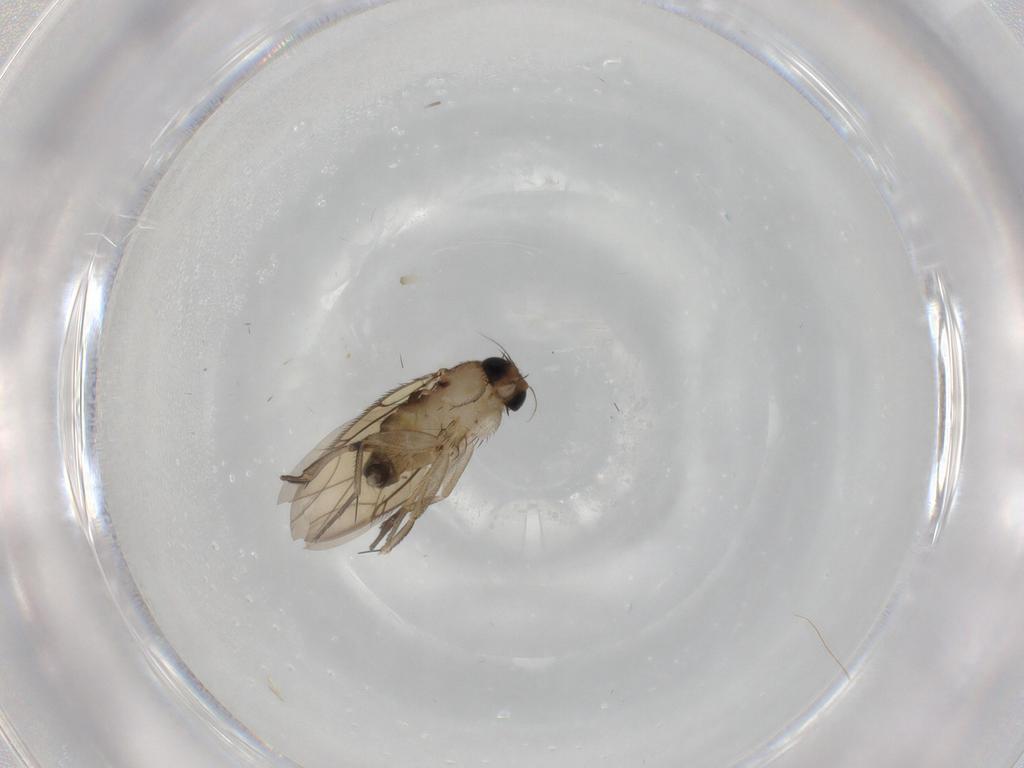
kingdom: Animalia
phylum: Arthropoda
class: Insecta
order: Diptera
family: Phoridae
